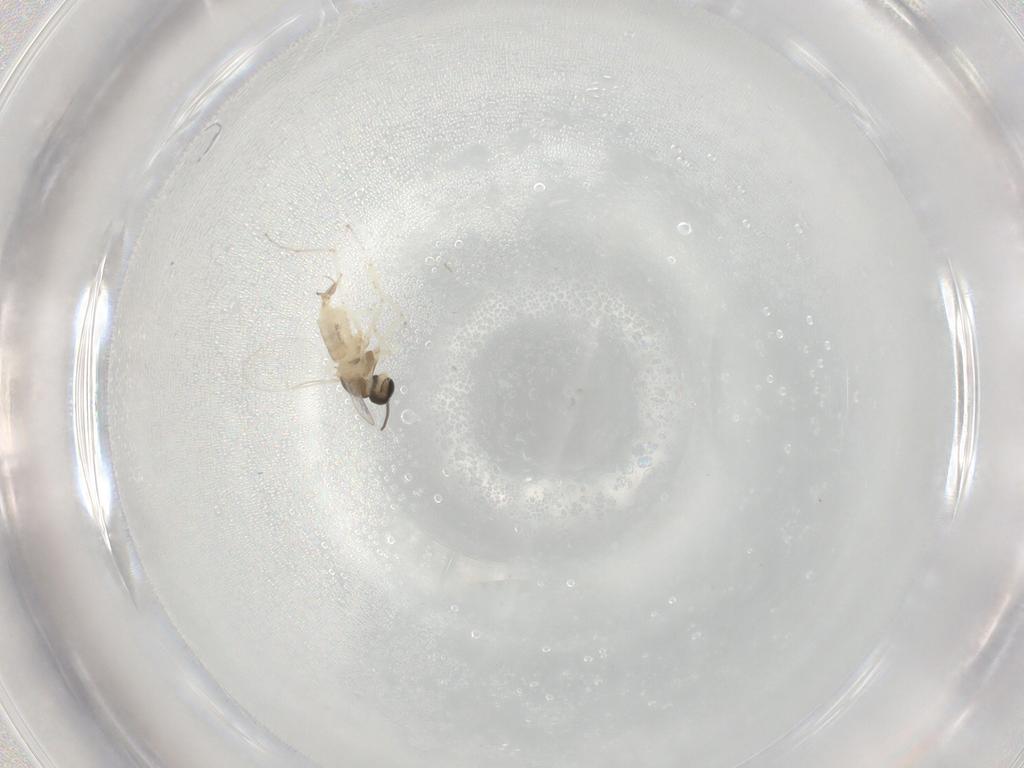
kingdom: Animalia
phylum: Arthropoda
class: Insecta
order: Diptera
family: Cecidomyiidae
